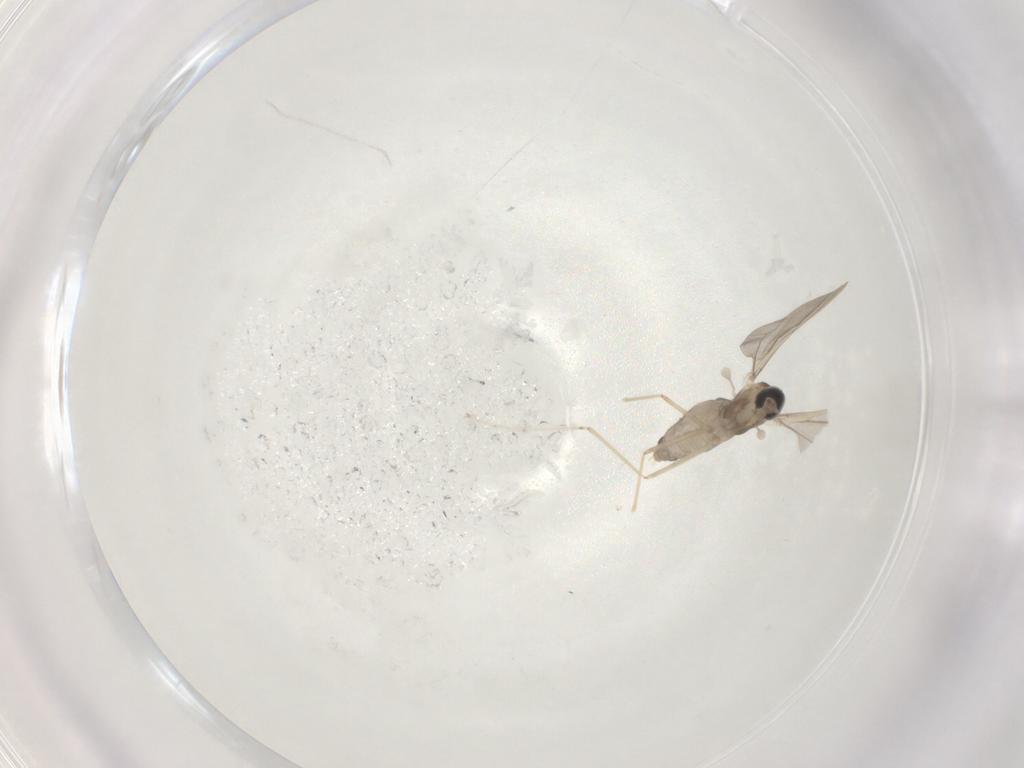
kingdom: Animalia
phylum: Arthropoda
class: Insecta
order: Diptera
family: Cecidomyiidae
